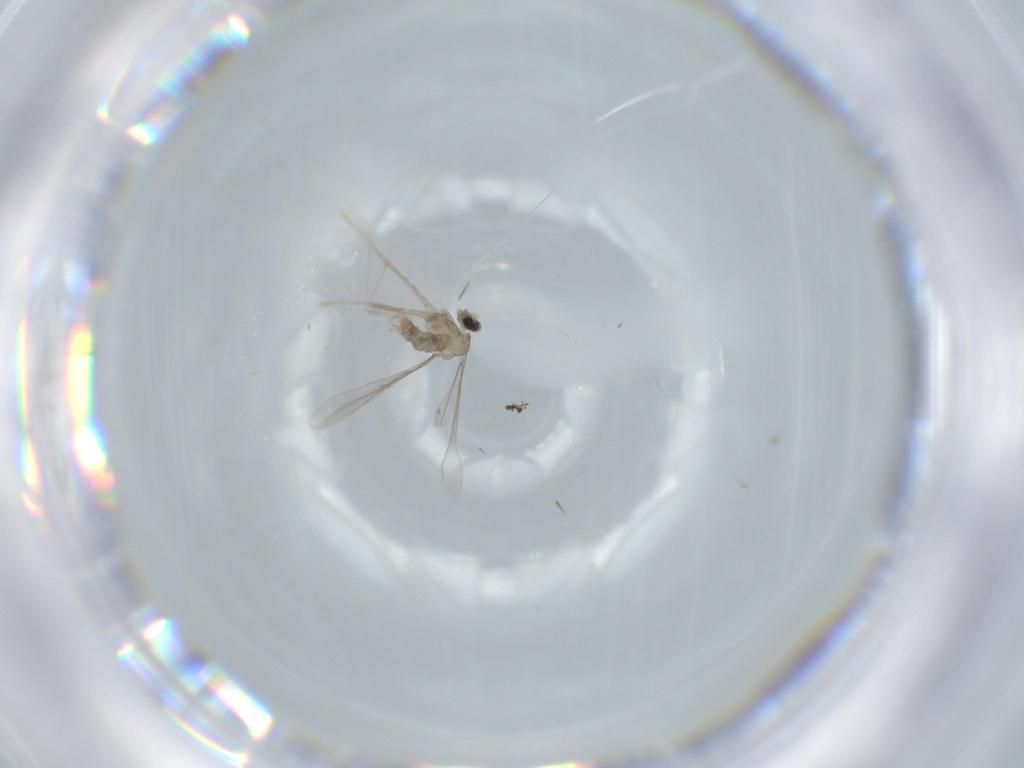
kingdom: Animalia
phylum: Arthropoda
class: Insecta
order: Diptera
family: Cecidomyiidae
